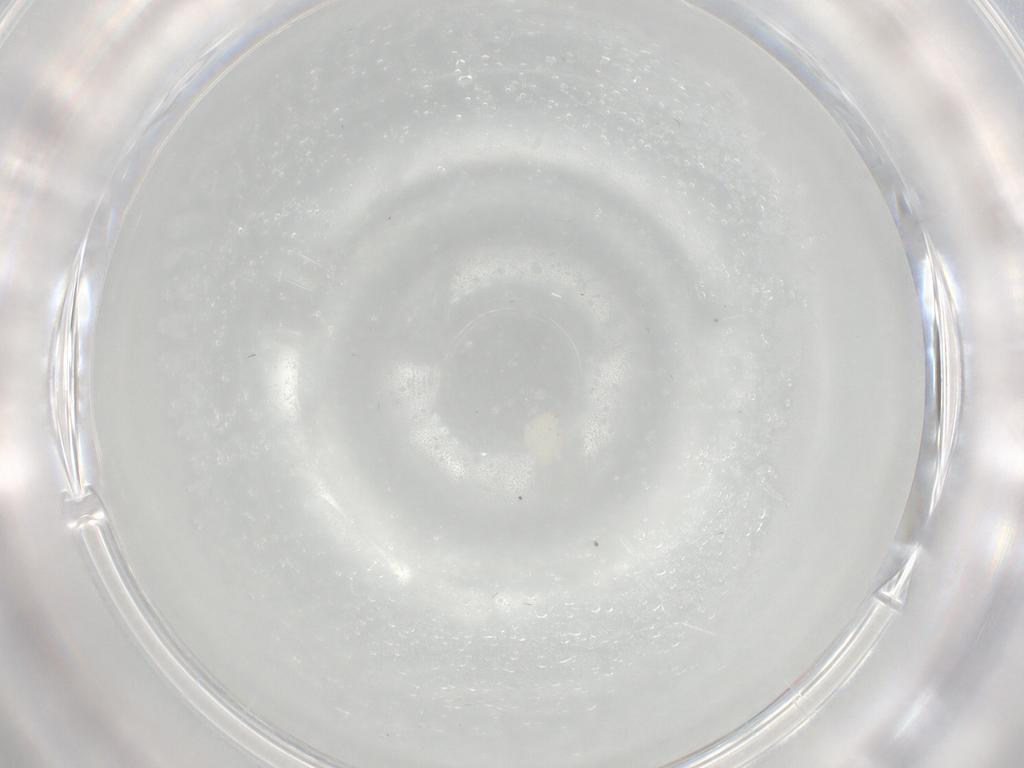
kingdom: Animalia
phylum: Arthropoda
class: Insecta
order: Diptera
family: Cecidomyiidae
